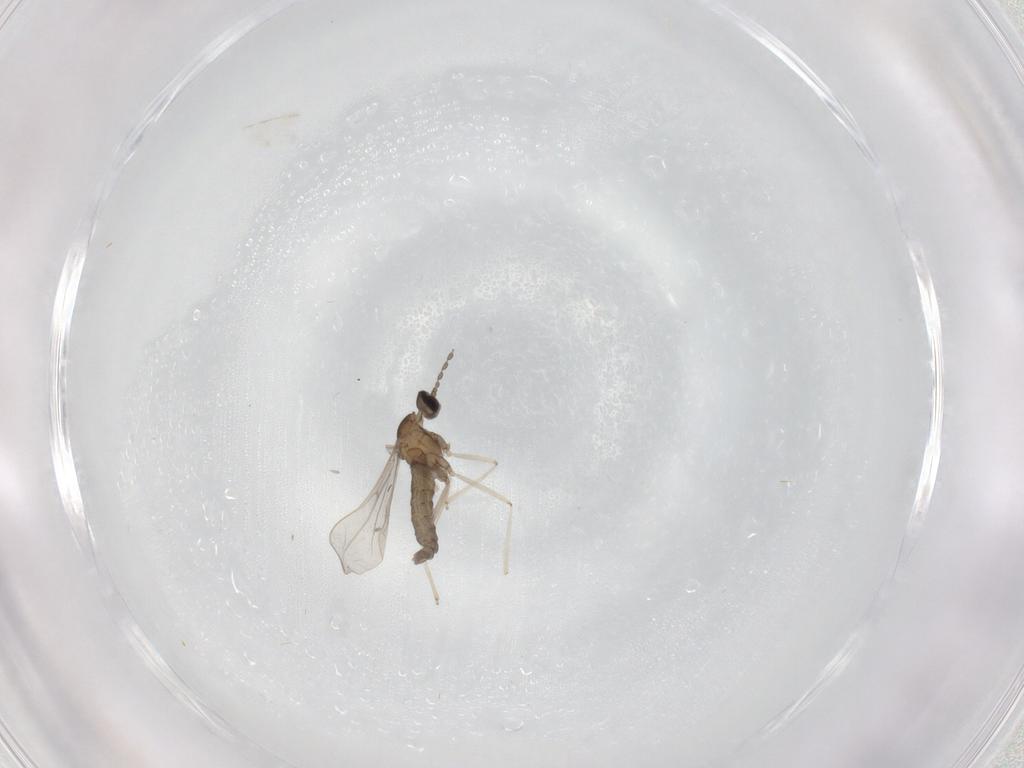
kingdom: Animalia
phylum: Arthropoda
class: Insecta
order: Diptera
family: Cecidomyiidae
